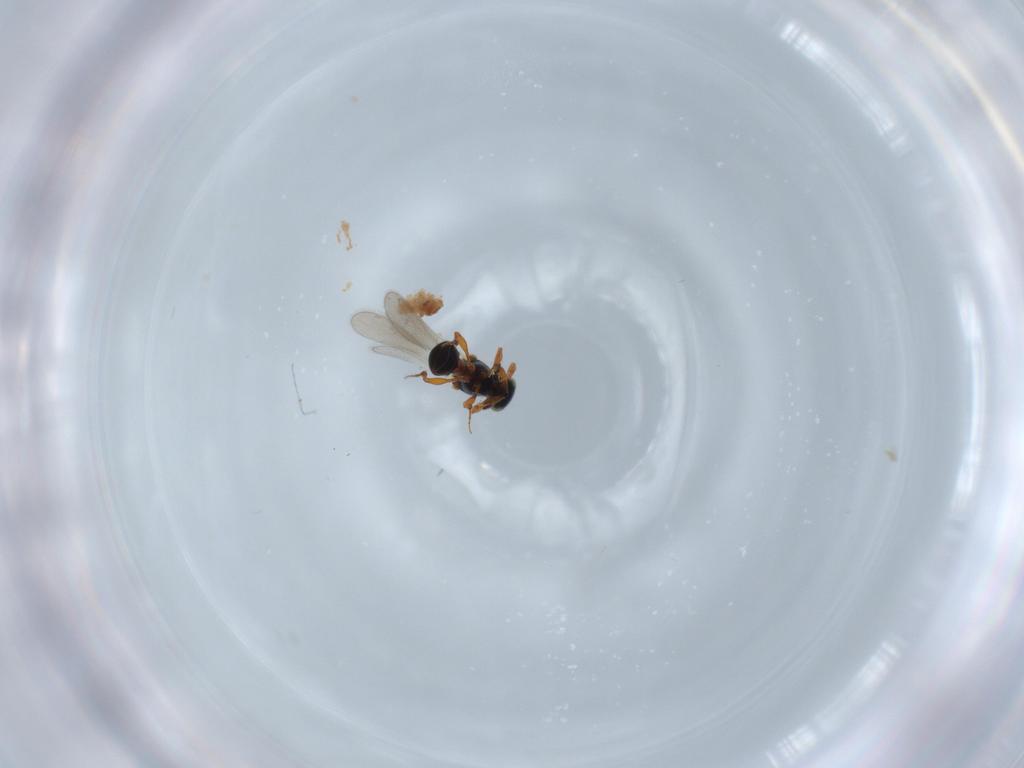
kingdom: Animalia
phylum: Arthropoda
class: Insecta
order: Hymenoptera
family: Platygastridae
